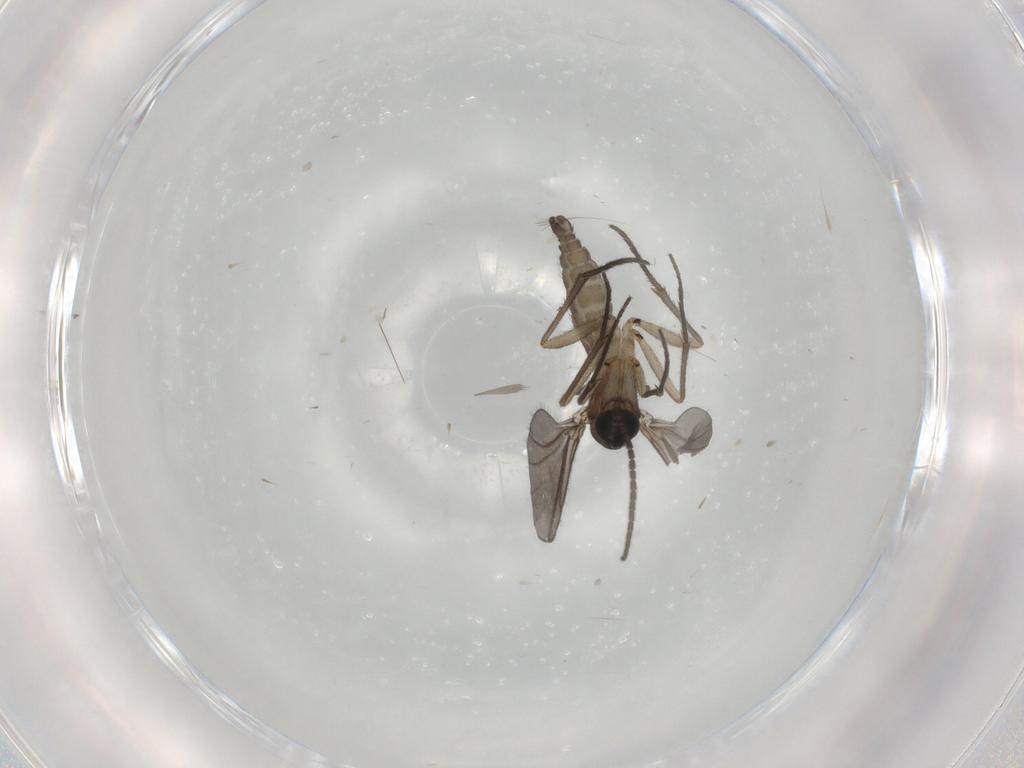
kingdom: Animalia
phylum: Arthropoda
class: Insecta
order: Diptera
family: Sciaridae
